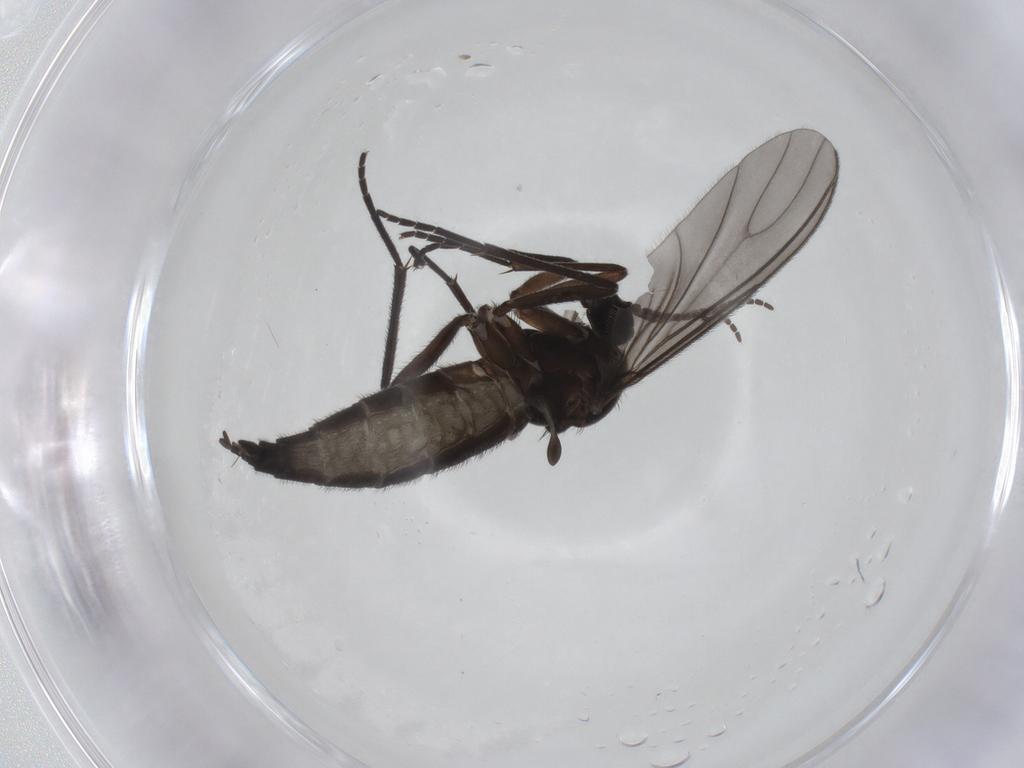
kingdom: Animalia
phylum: Arthropoda
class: Insecta
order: Diptera
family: Sciaridae
